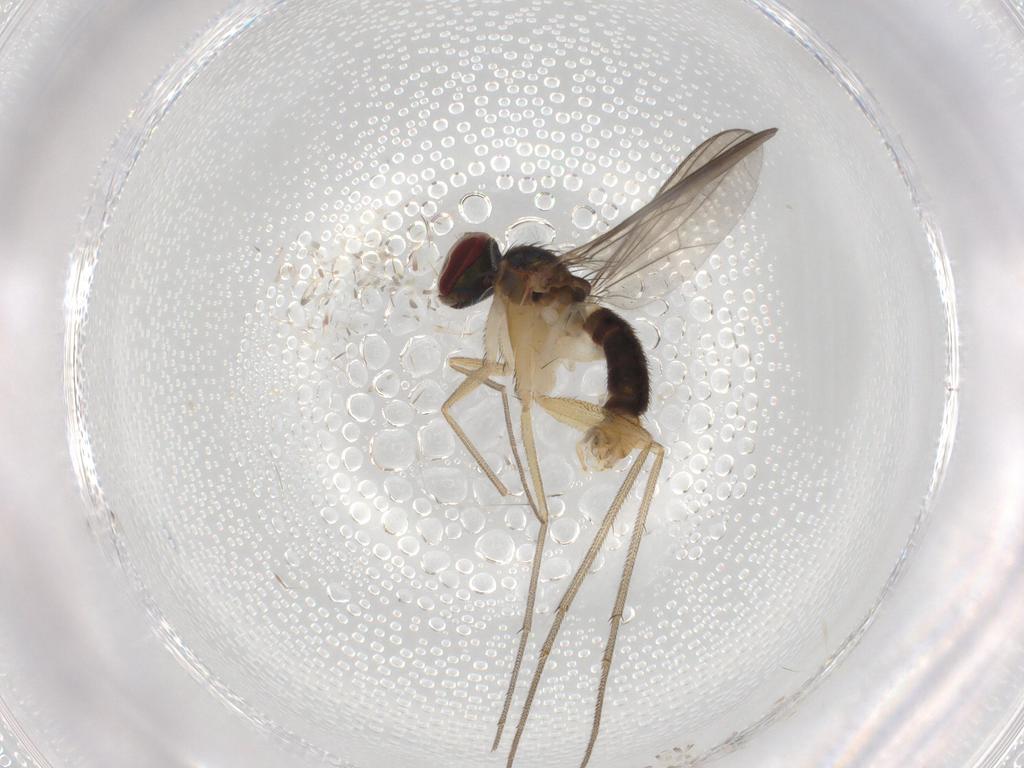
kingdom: Animalia
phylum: Arthropoda
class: Insecta
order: Diptera
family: Dolichopodidae
